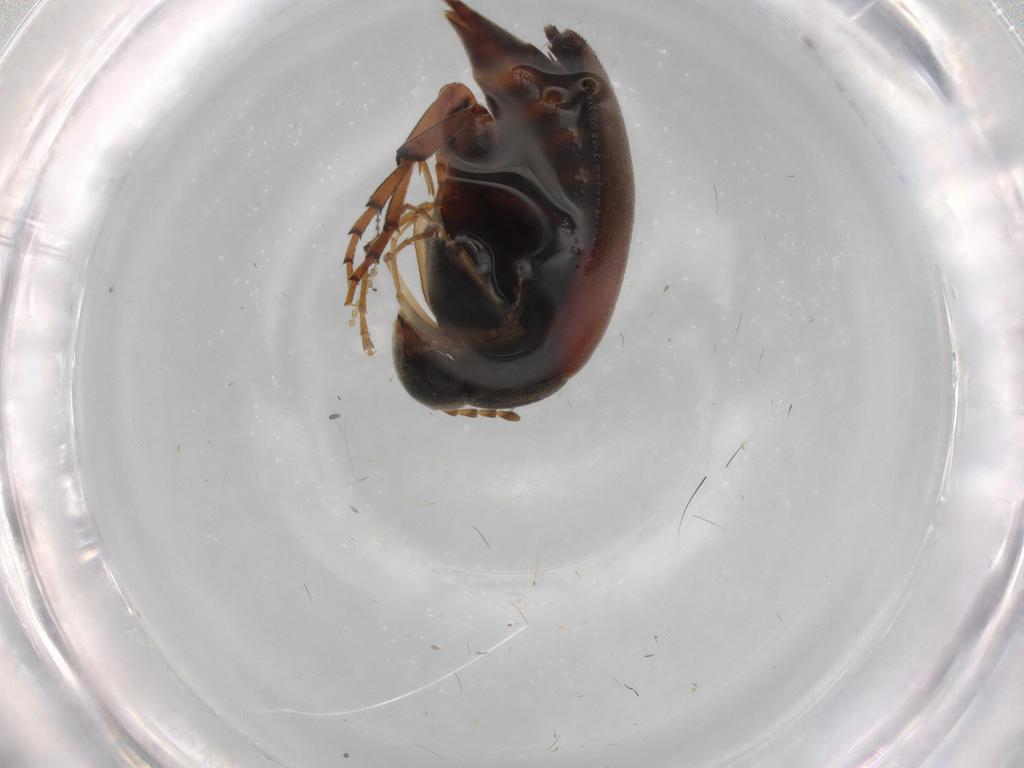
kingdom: Animalia
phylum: Arthropoda
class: Insecta
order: Coleoptera
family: Mordellidae
